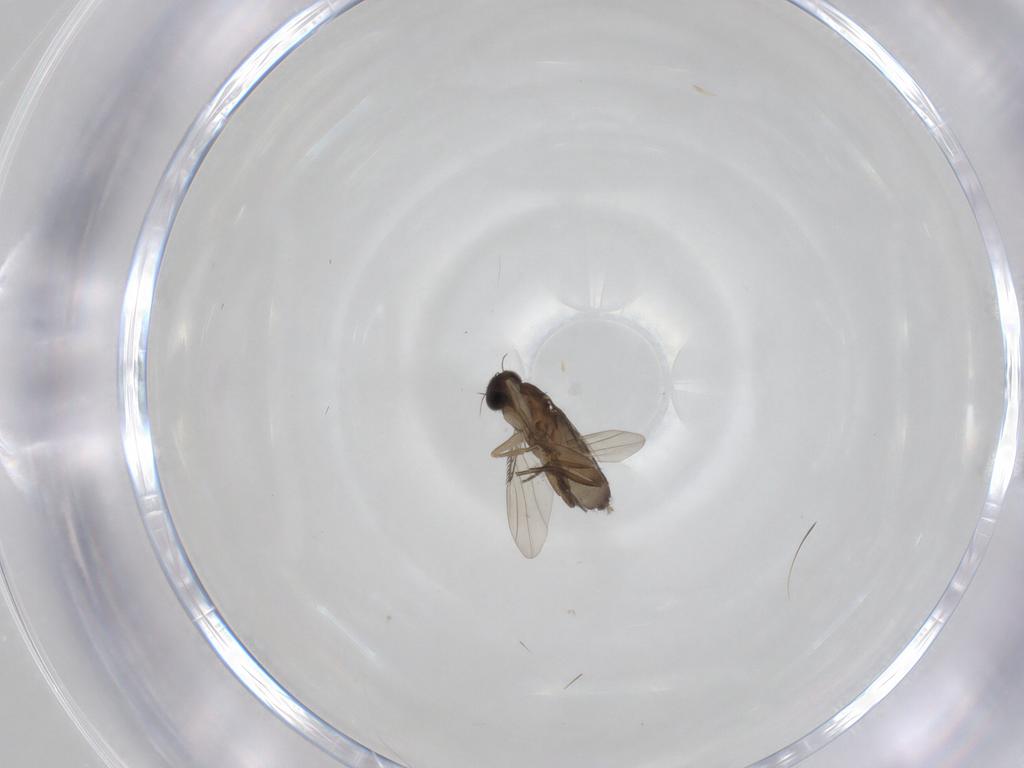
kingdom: Animalia
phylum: Arthropoda
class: Insecta
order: Diptera
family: Phoridae
